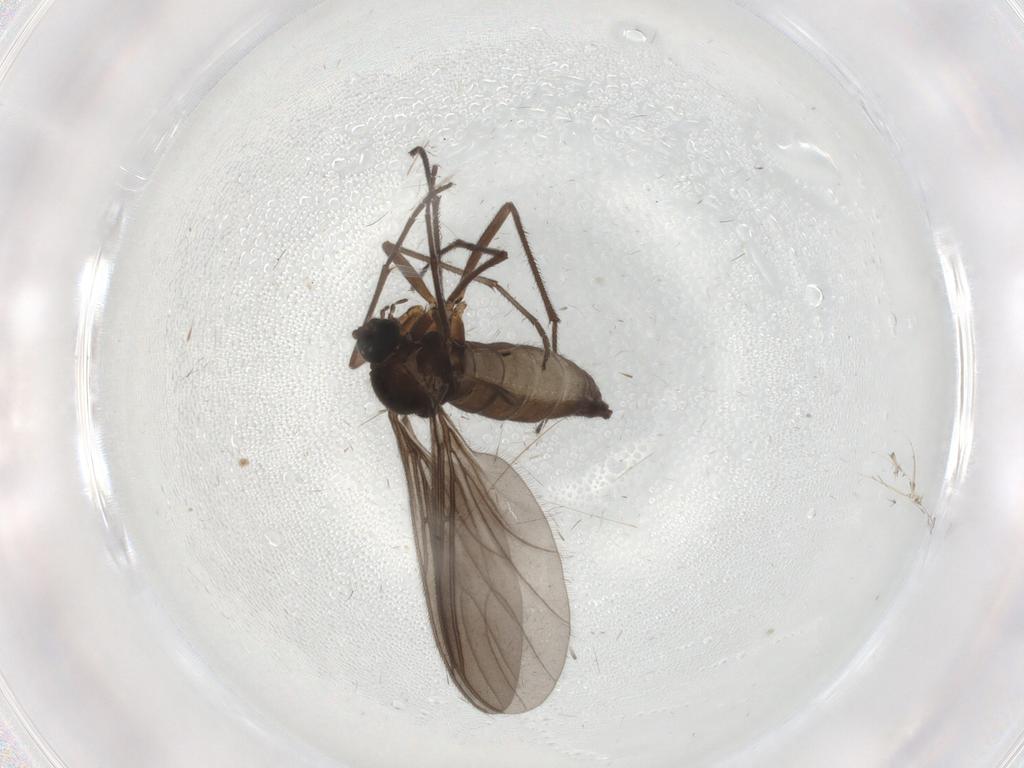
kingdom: Animalia
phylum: Arthropoda
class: Insecta
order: Diptera
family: Sciaridae
